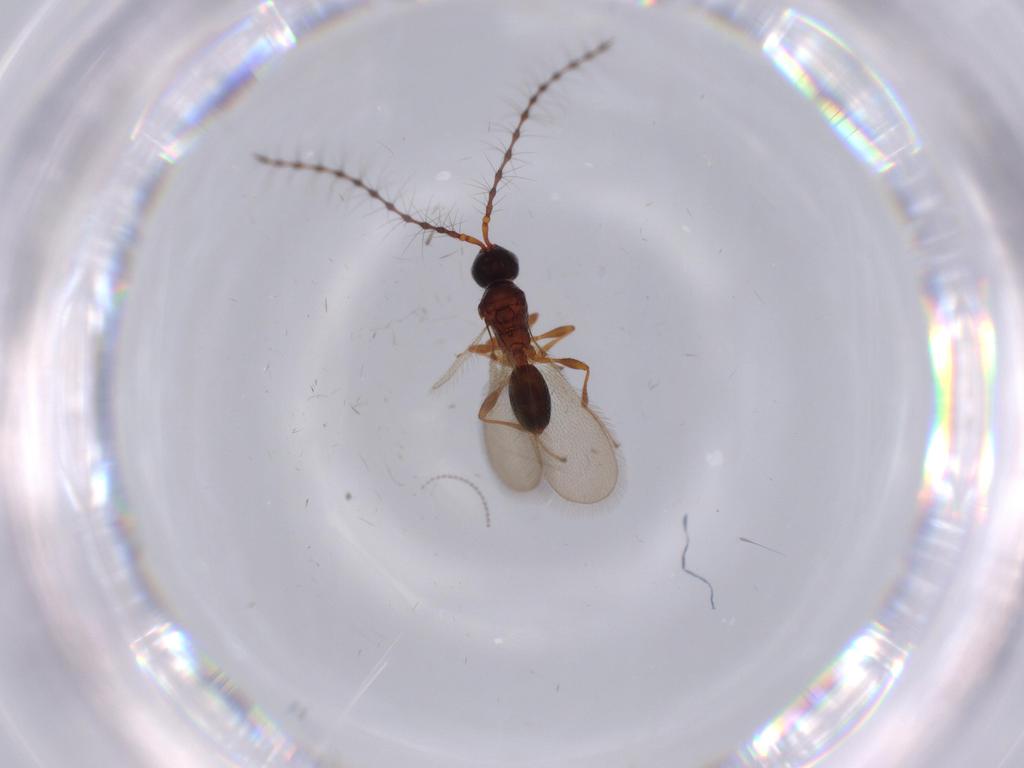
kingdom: Animalia
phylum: Arthropoda
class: Insecta
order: Hymenoptera
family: Diapriidae
